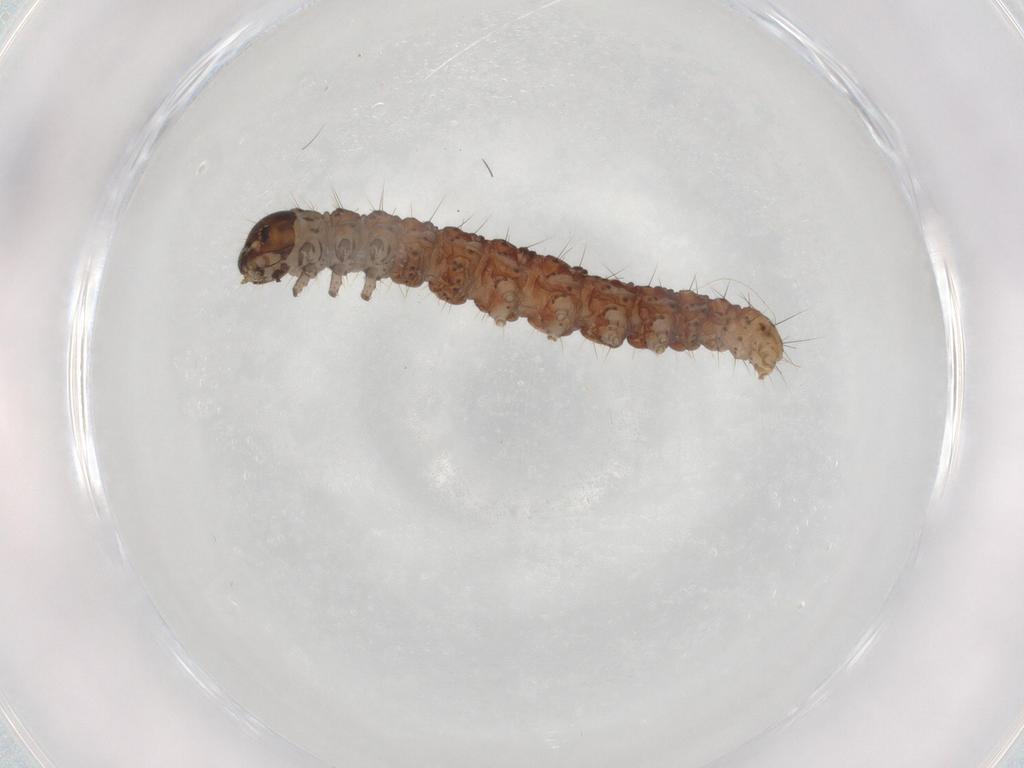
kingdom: Animalia
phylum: Arthropoda
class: Insecta
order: Lepidoptera
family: Gelechiidae
